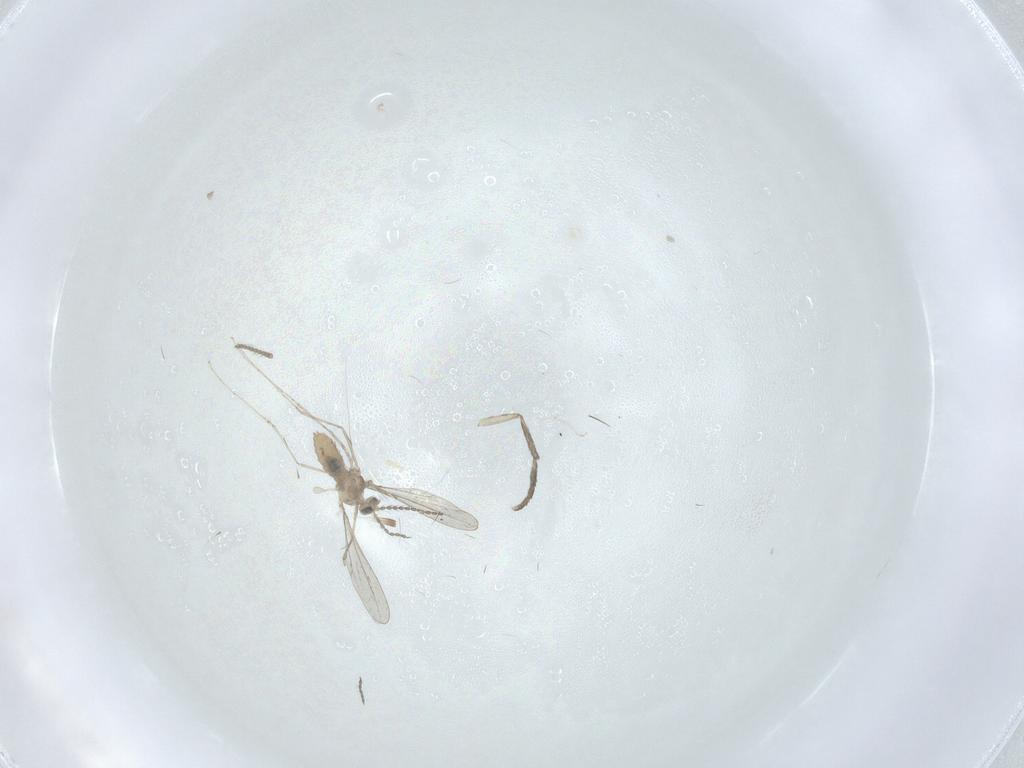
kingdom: Animalia
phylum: Arthropoda
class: Insecta
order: Diptera
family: Cecidomyiidae
